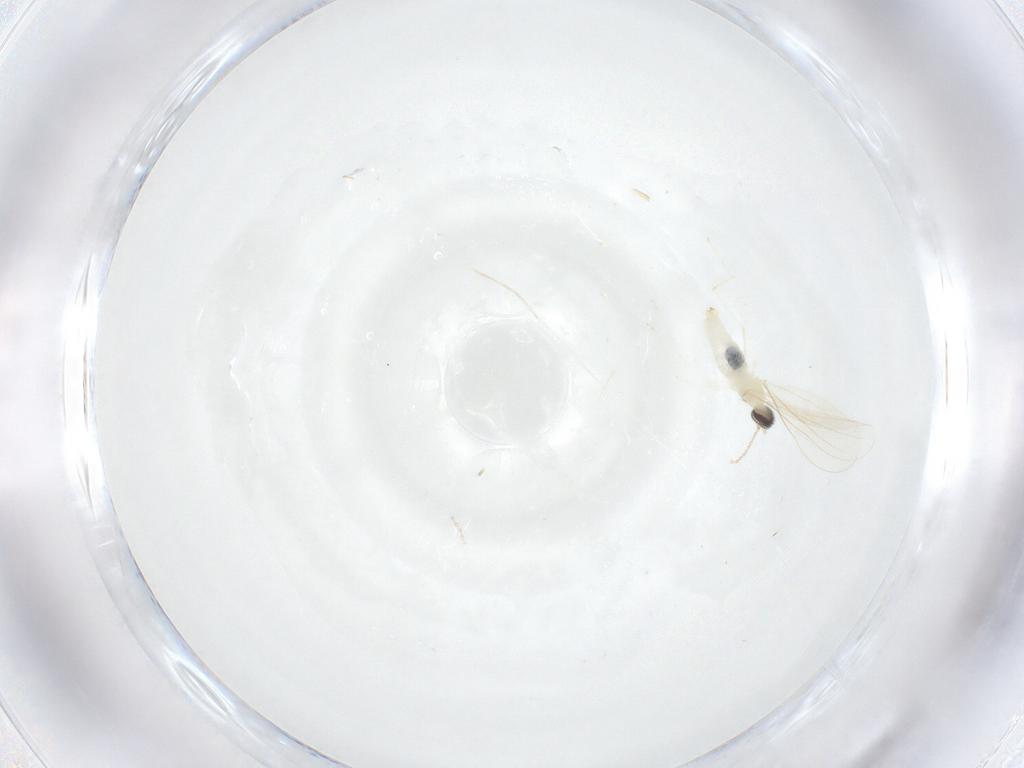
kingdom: Animalia
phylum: Arthropoda
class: Insecta
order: Diptera
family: Cecidomyiidae
